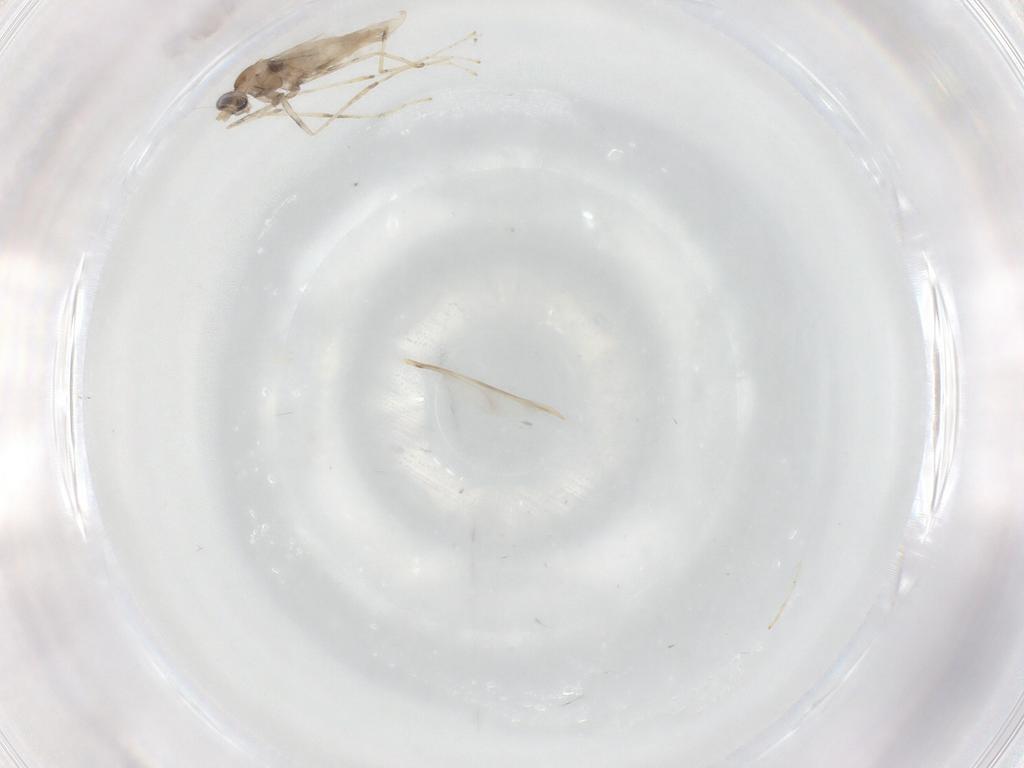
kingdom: Animalia
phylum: Arthropoda
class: Insecta
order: Diptera
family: Cecidomyiidae
